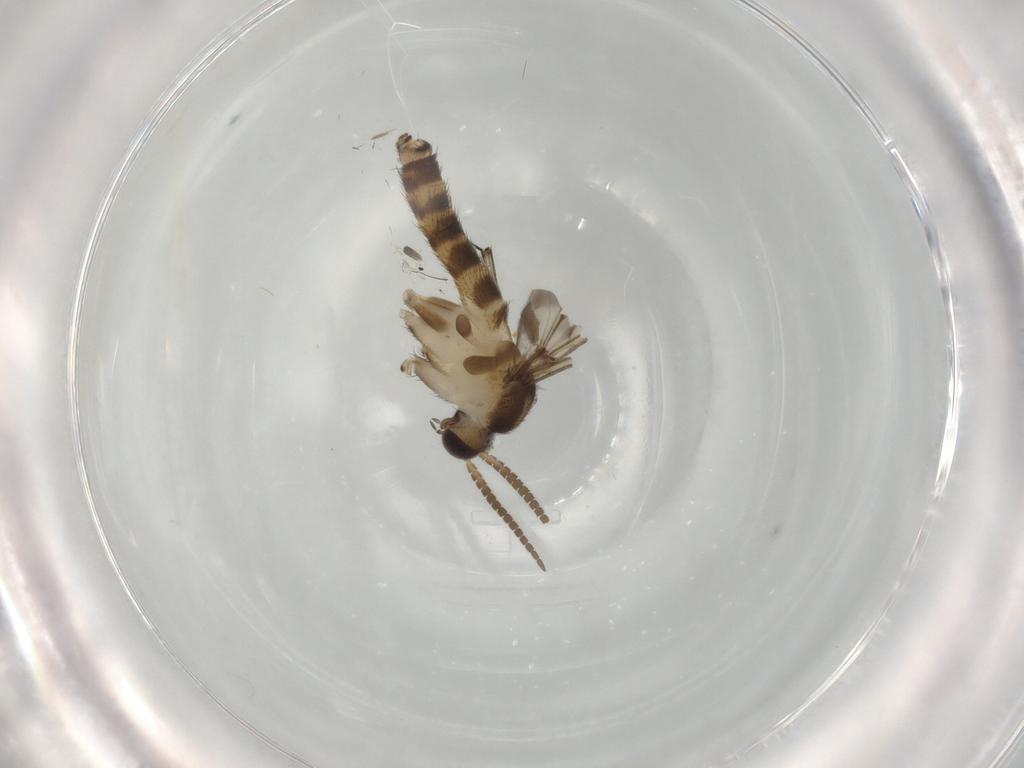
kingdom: Animalia
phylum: Arthropoda
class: Insecta
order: Diptera
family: Keroplatidae
